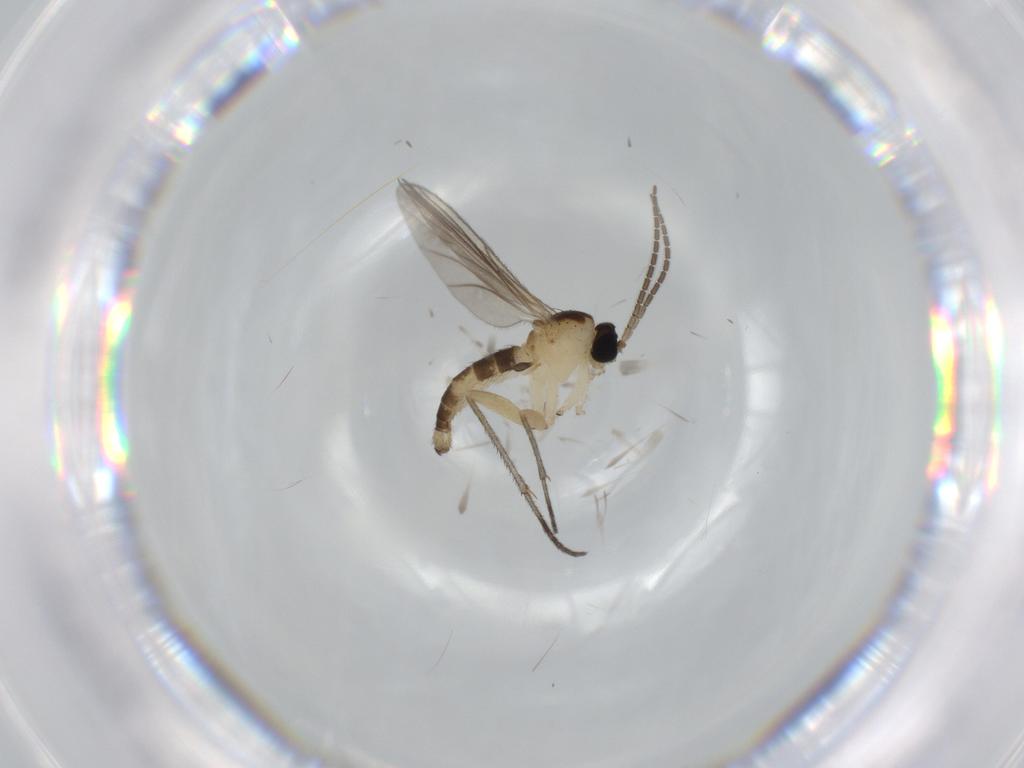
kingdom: Animalia
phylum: Arthropoda
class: Insecta
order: Diptera
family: Sciaridae
